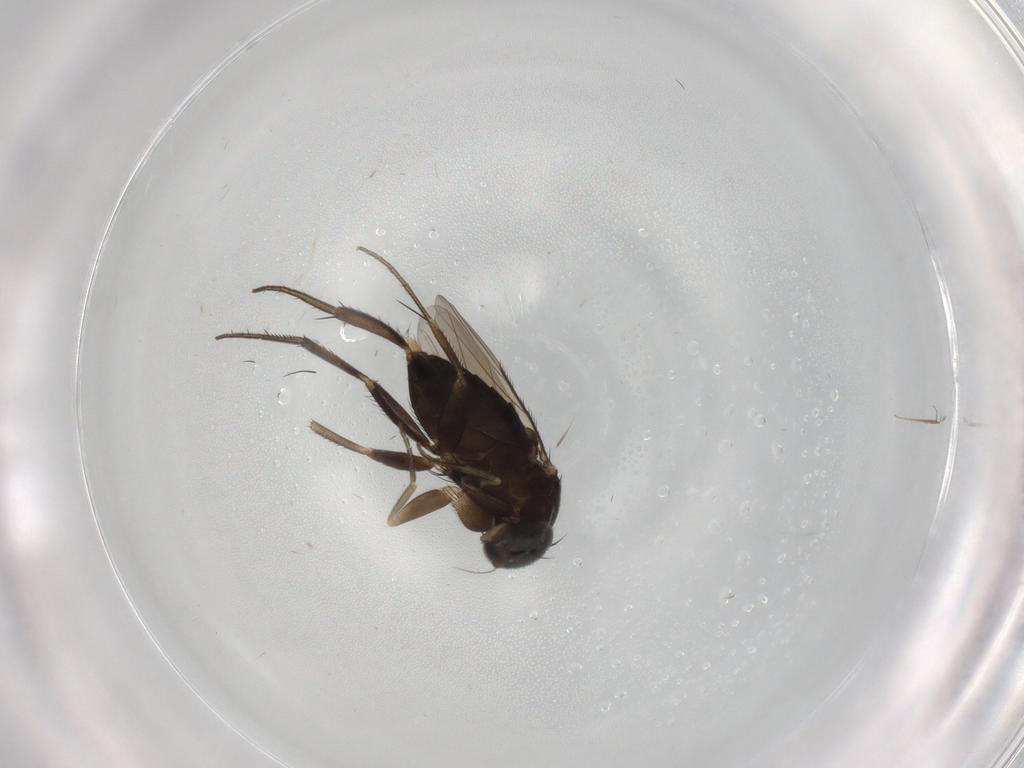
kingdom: Animalia
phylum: Arthropoda
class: Insecta
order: Diptera
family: Phoridae
